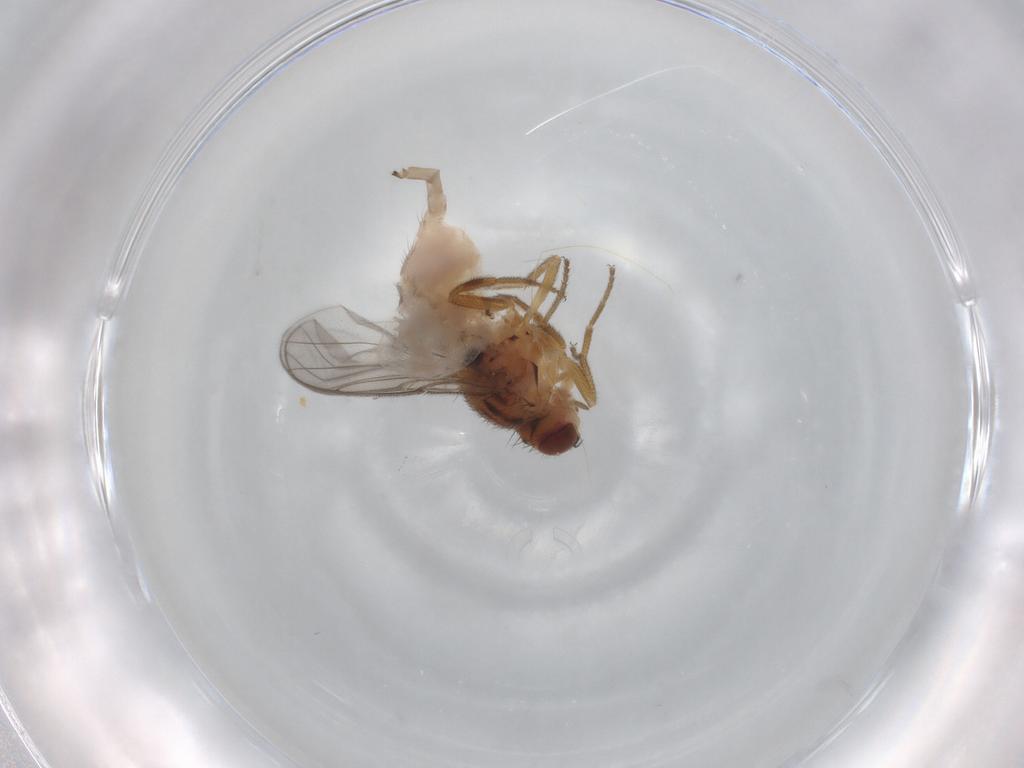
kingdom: Animalia
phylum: Arthropoda
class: Insecta
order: Diptera
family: Chloropidae
